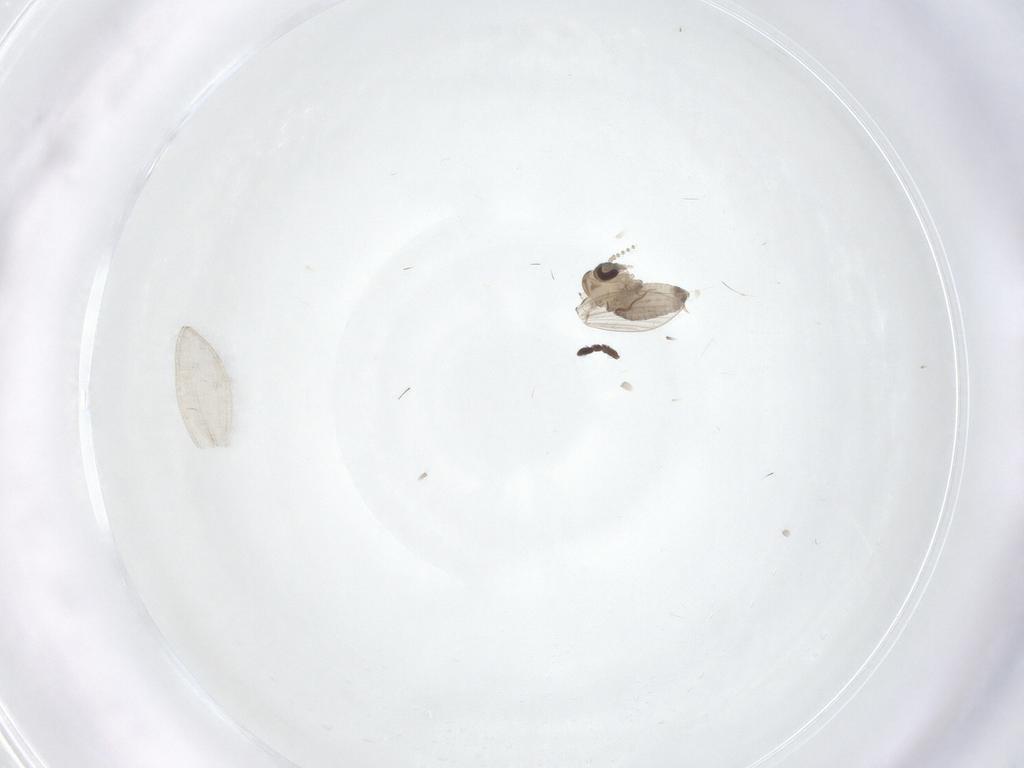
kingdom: Animalia
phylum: Arthropoda
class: Insecta
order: Diptera
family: Psychodidae
